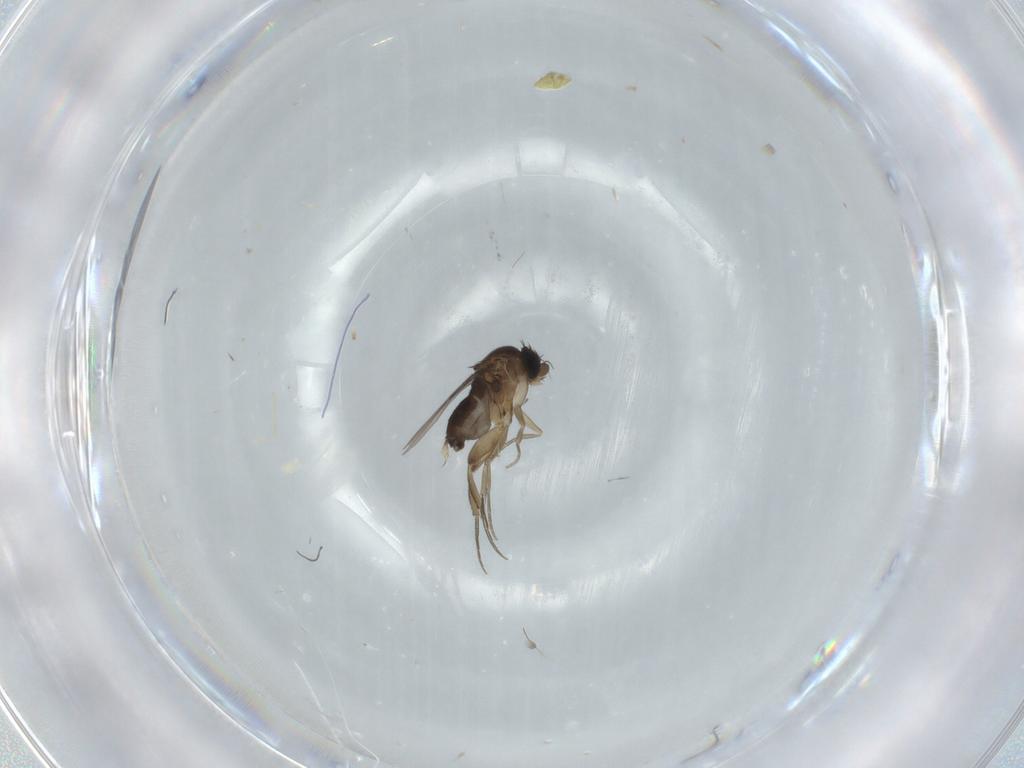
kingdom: Animalia
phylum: Arthropoda
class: Insecta
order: Diptera
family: Phoridae
